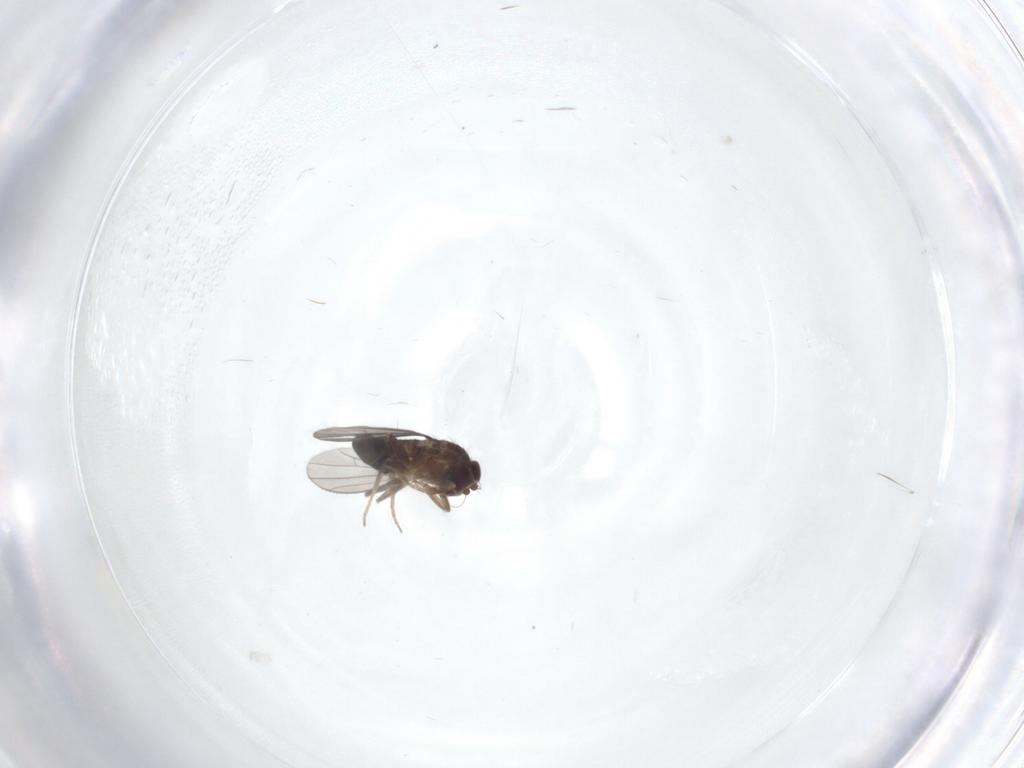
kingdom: Animalia
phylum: Arthropoda
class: Insecta
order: Diptera
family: Dolichopodidae
